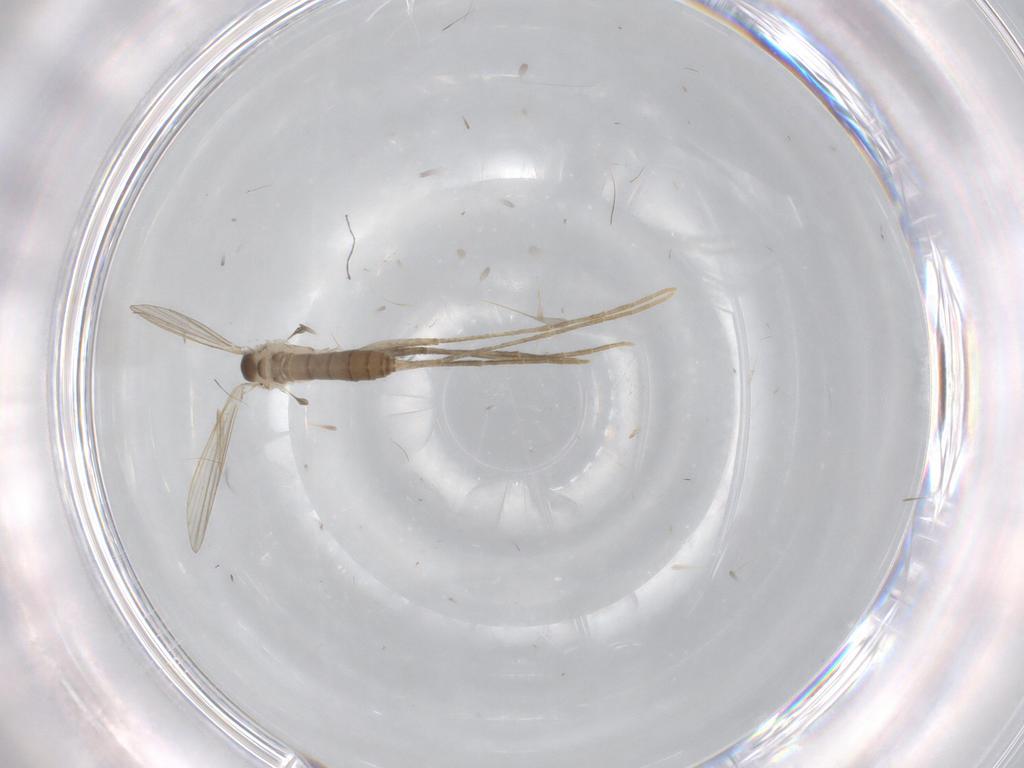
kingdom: Animalia
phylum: Arthropoda
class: Insecta
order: Diptera
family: Psychodidae
